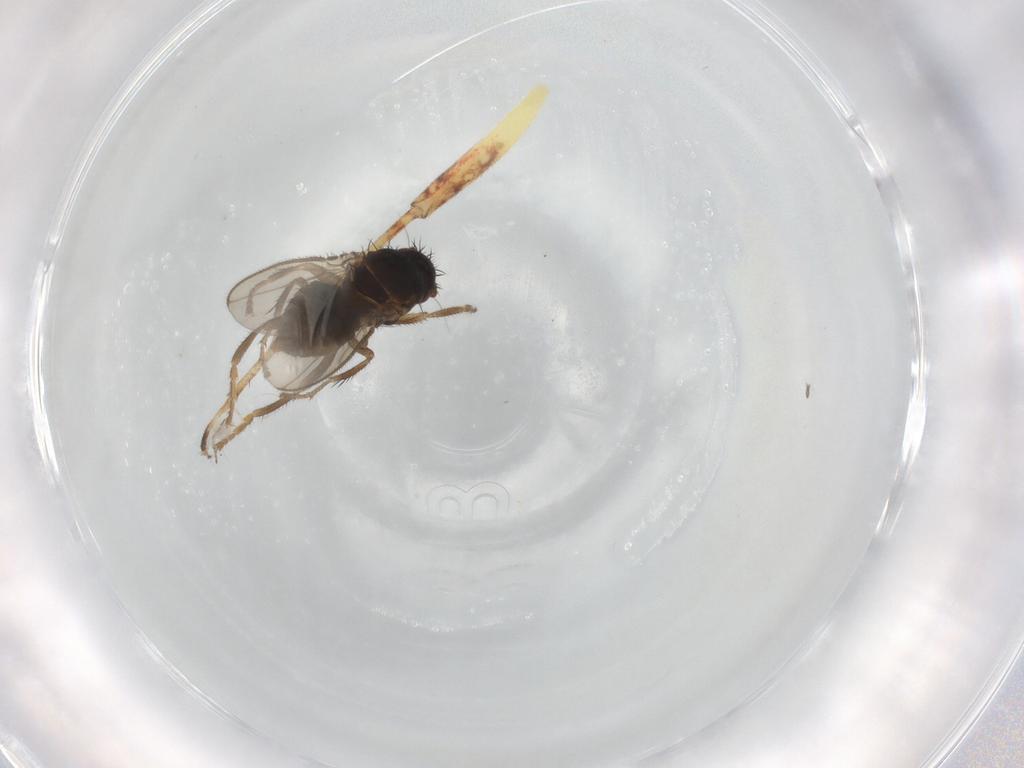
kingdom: Animalia
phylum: Arthropoda
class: Insecta
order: Diptera
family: Sphaeroceridae
